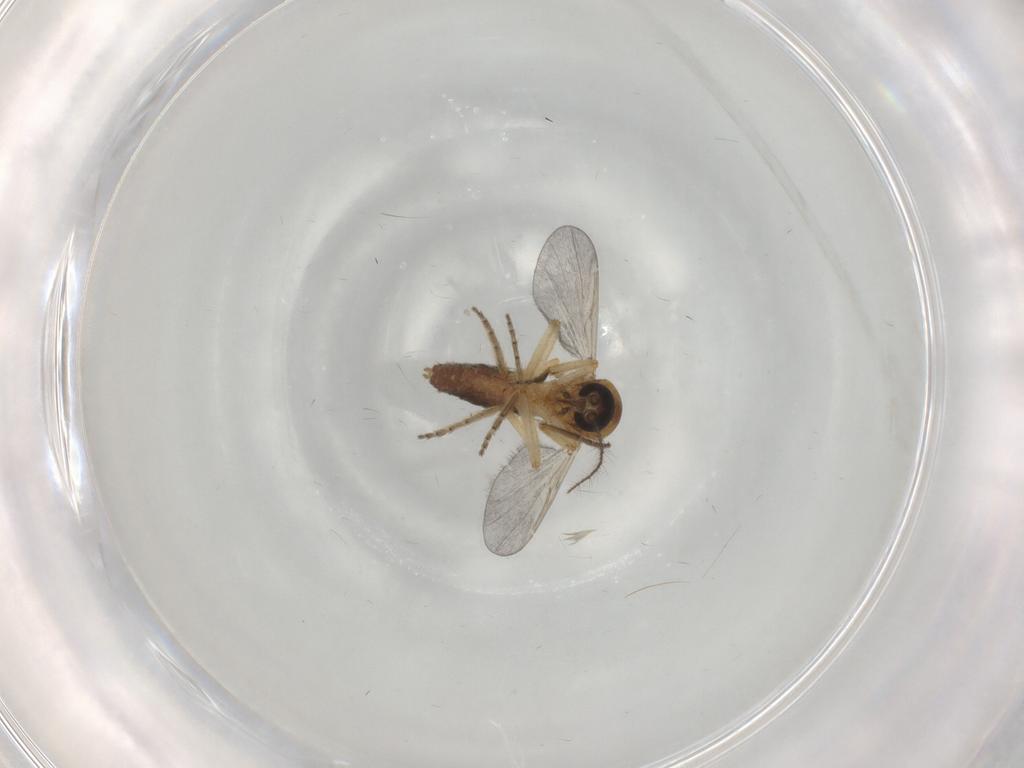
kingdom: Animalia
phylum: Arthropoda
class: Insecta
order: Diptera
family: Ceratopogonidae
